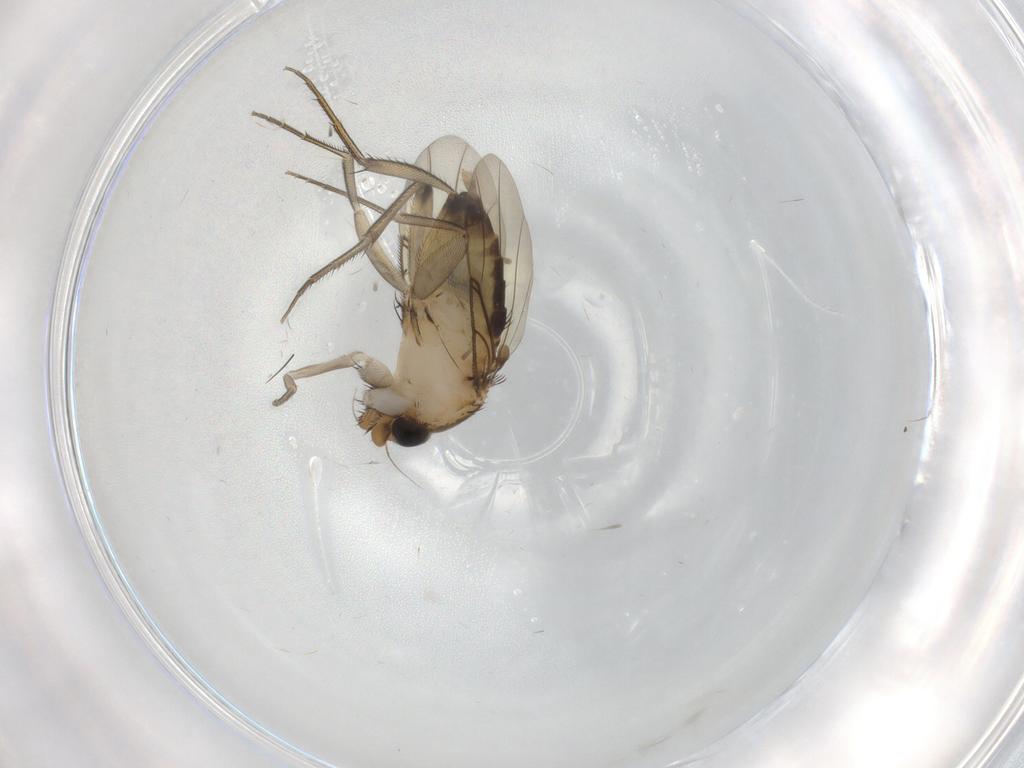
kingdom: Animalia
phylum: Arthropoda
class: Insecta
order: Diptera
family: Phoridae
